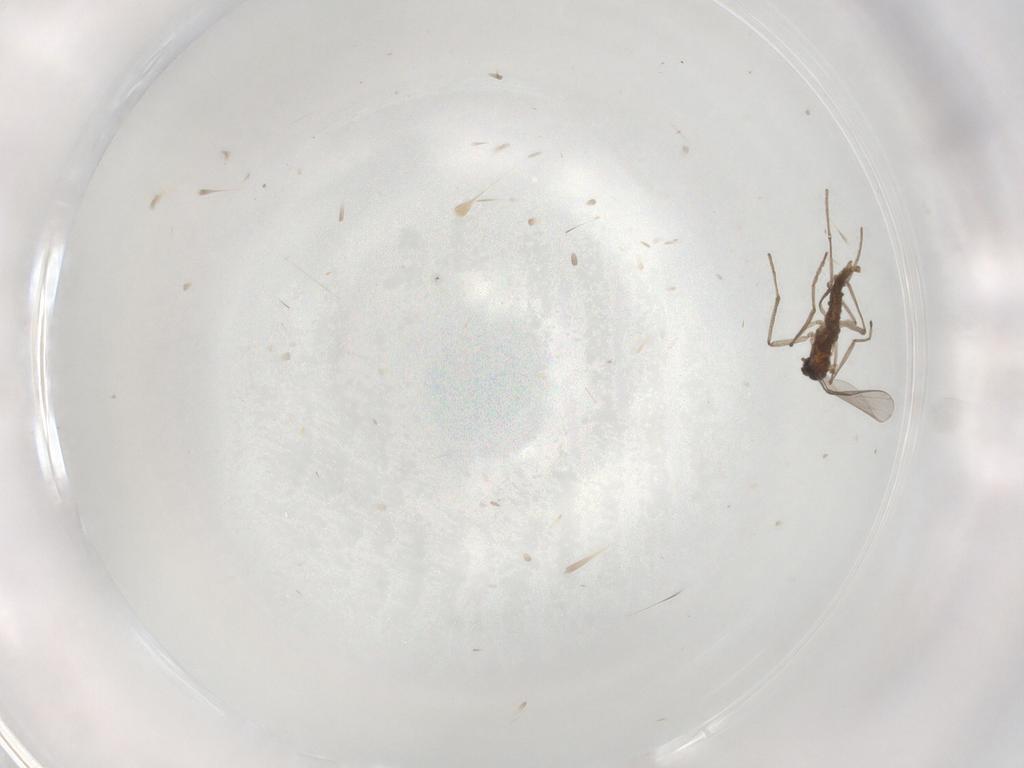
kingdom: Animalia
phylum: Arthropoda
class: Insecta
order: Diptera
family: Cecidomyiidae
